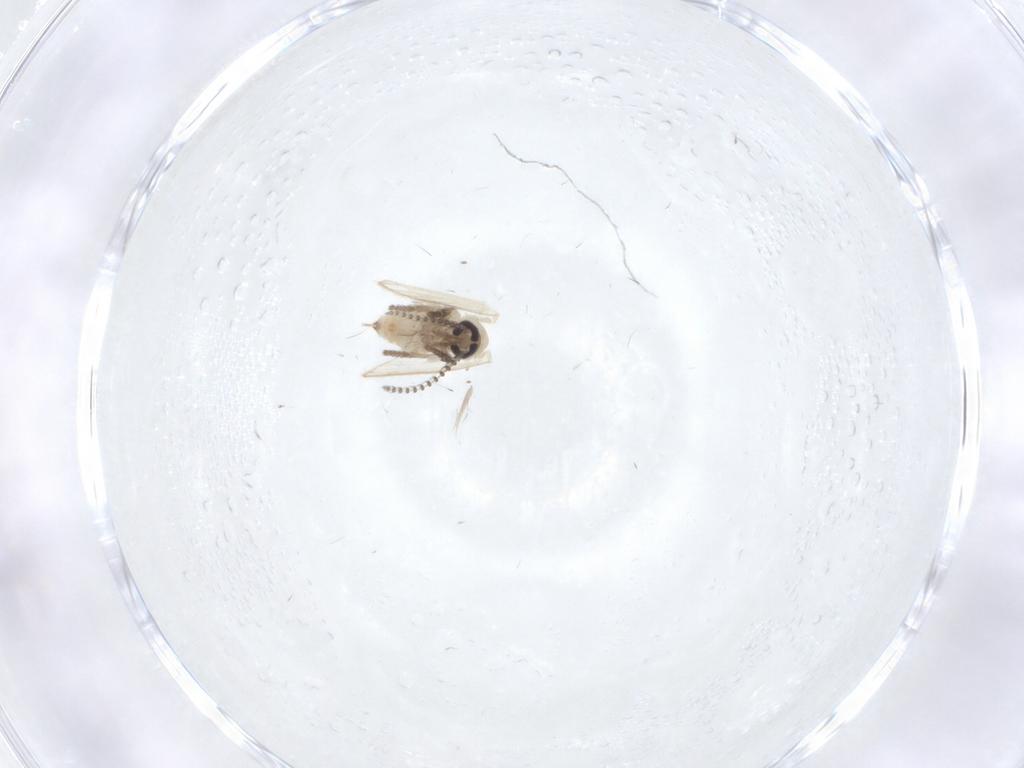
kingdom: Animalia
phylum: Arthropoda
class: Insecta
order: Diptera
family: Psychodidae
